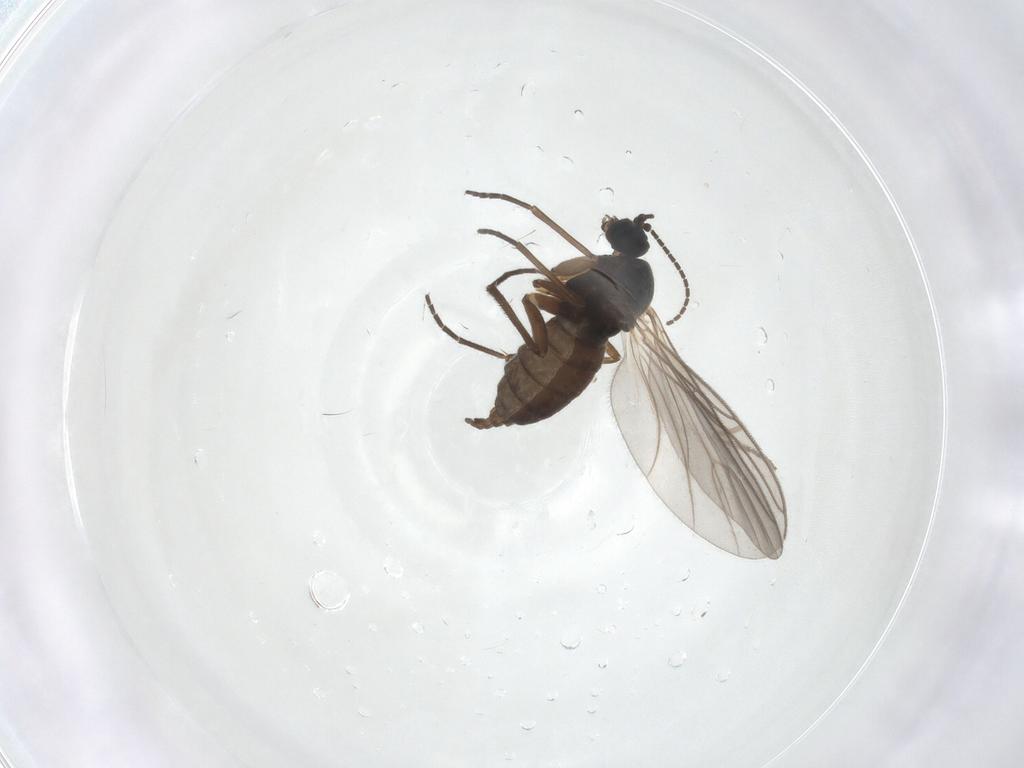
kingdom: Animalia
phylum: Arthropoda
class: Insecta
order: Diptera
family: Sciaridae
